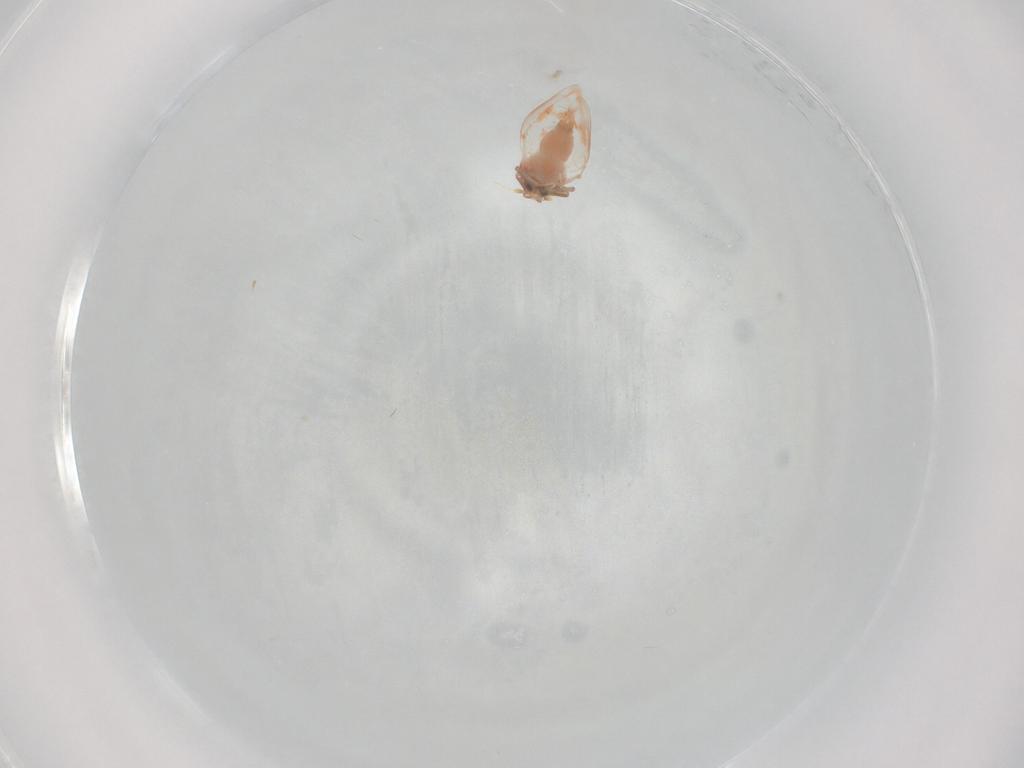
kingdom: Animalia
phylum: Arthropoda
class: Insecta
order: Hemiptera
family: Aleyrodidae
